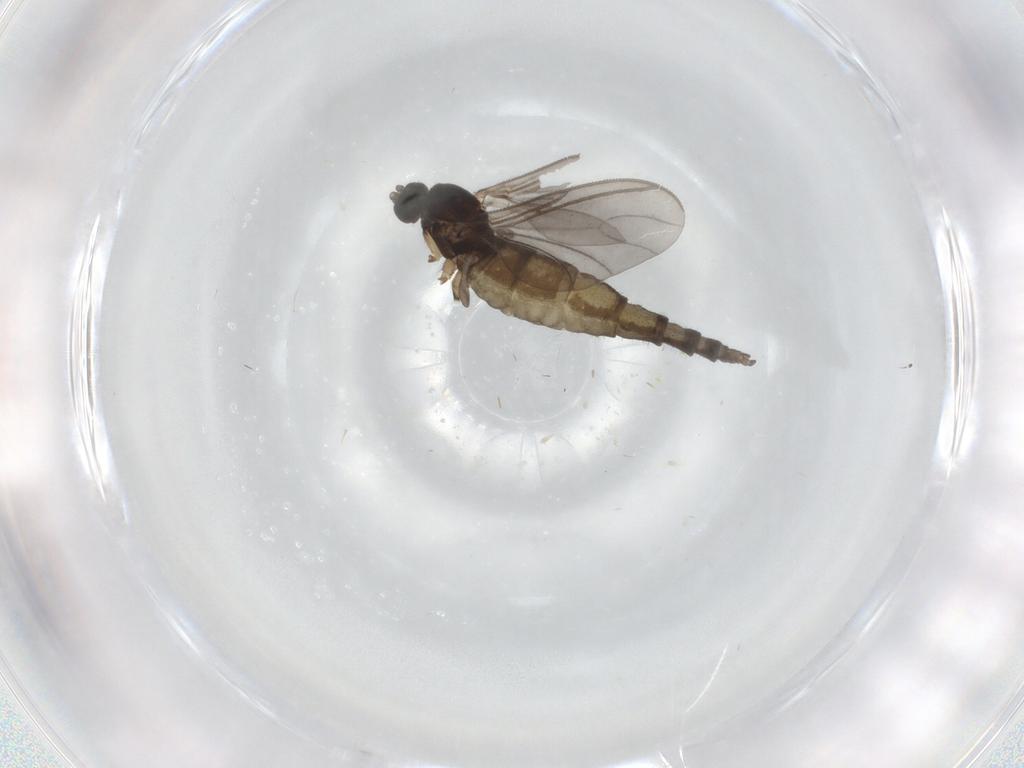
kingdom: Animalia
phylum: Arthropoda
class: Insecta
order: Diptera
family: Sciaridae
